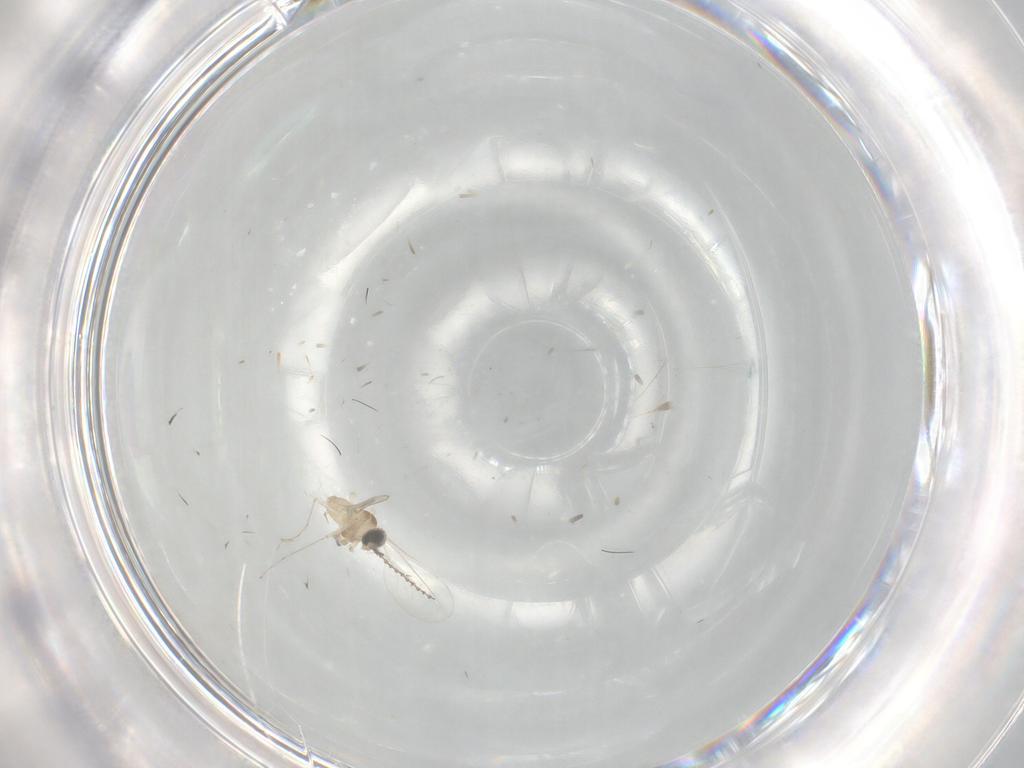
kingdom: Animalia
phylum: Arthropoda
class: Insecta
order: Diptera
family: Cecidomyiidae
